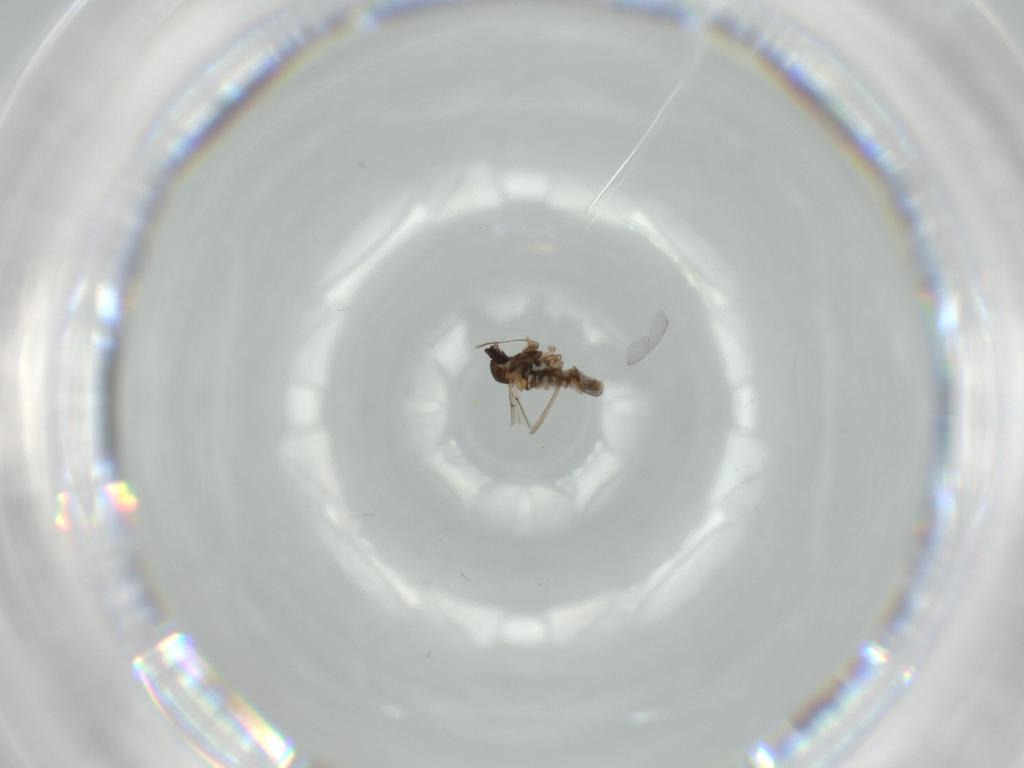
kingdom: Animalia
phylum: Arthropoda
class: Insecta
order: Diptera
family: Cecidomyiidae
